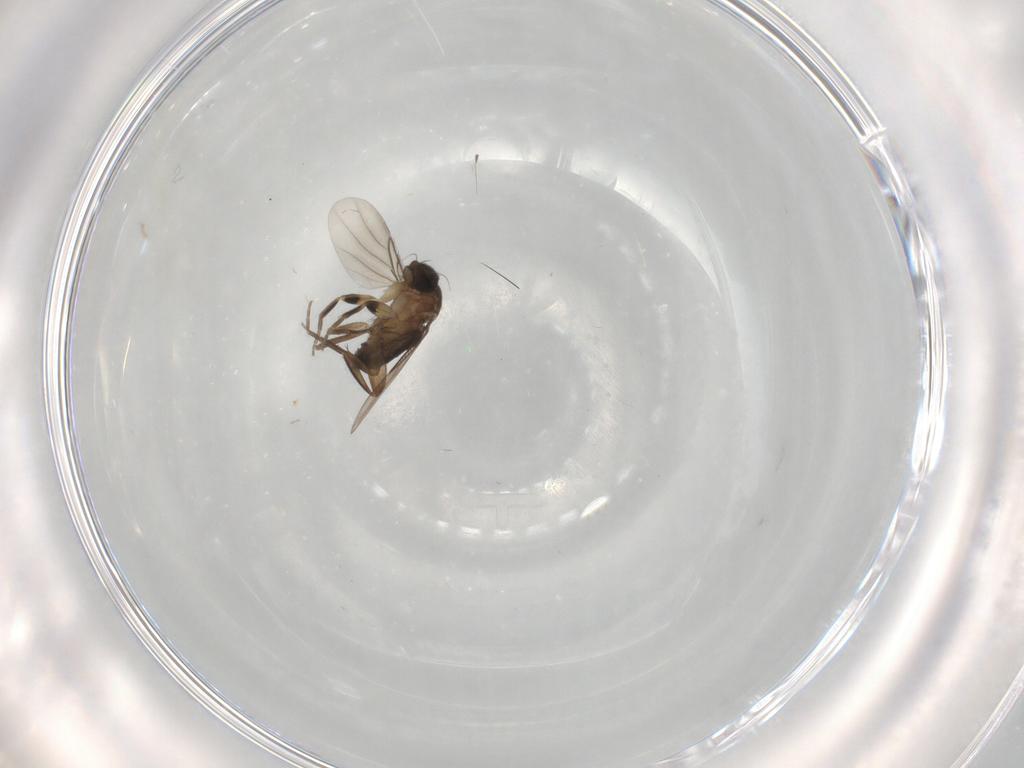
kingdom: Animalia
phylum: Arthropoda
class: Insecta
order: Diptera
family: Phoridae
